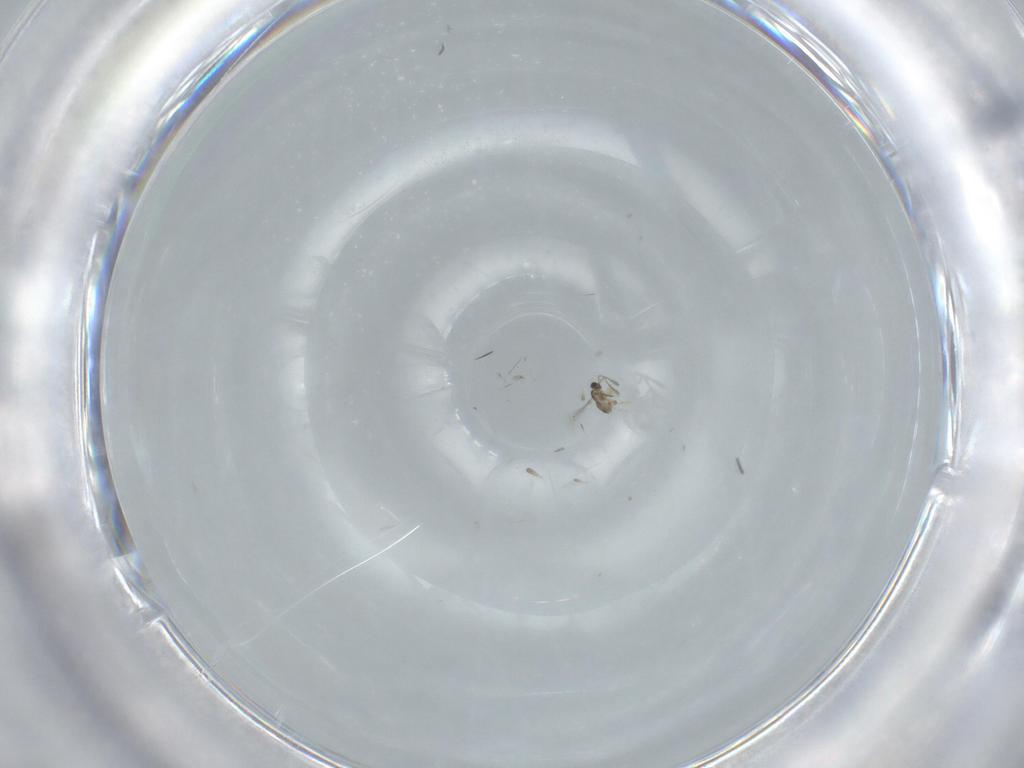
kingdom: Animalia
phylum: Arthropoda
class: Insecta
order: Hymenoptera
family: Mymaridae
